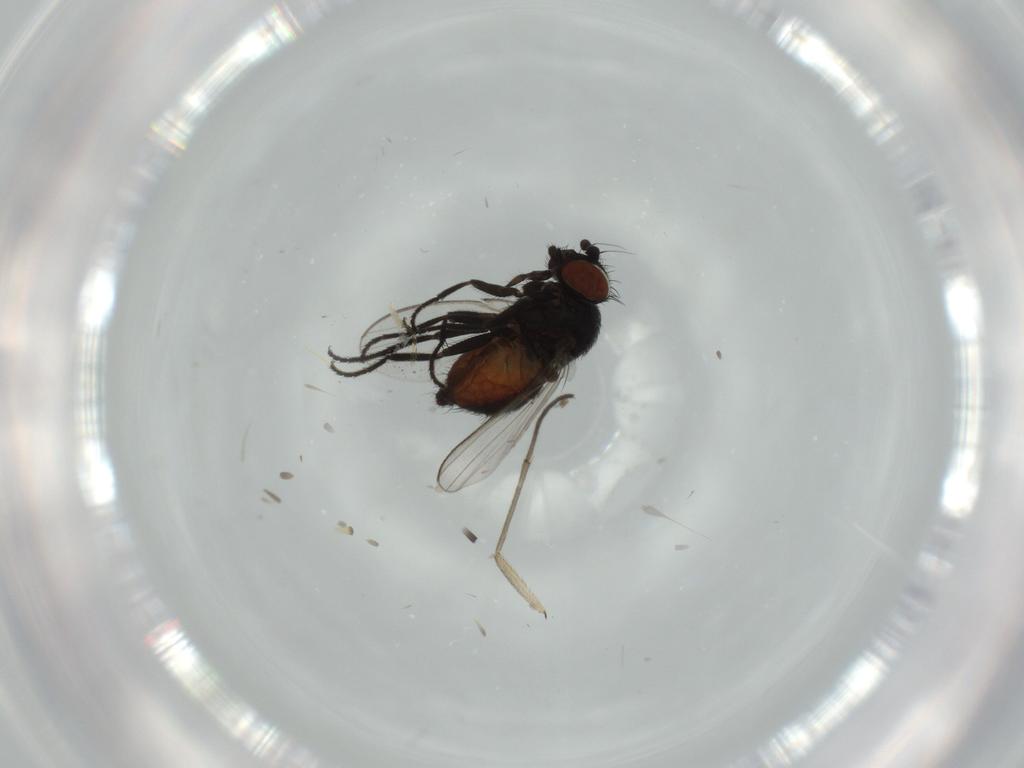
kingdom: Animalia
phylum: Arthropoda
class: Insecta
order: Diptera
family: Milichiidae
